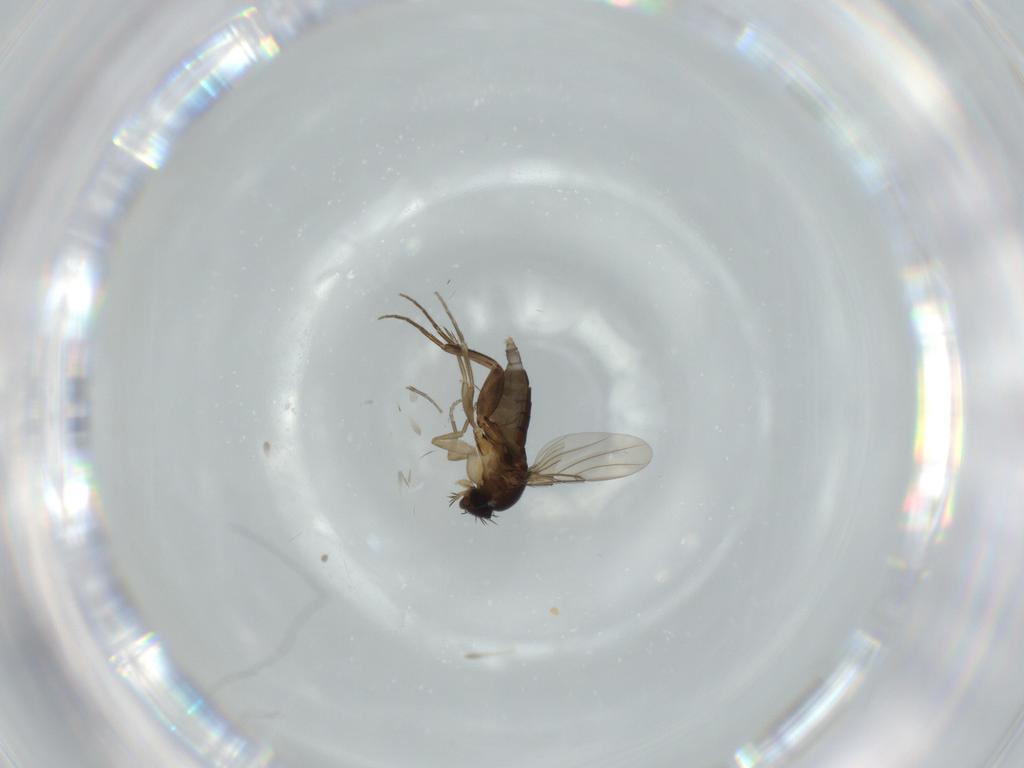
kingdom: Animalia
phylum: Arthropoda
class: Insecta
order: Diptera
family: Phoridae
